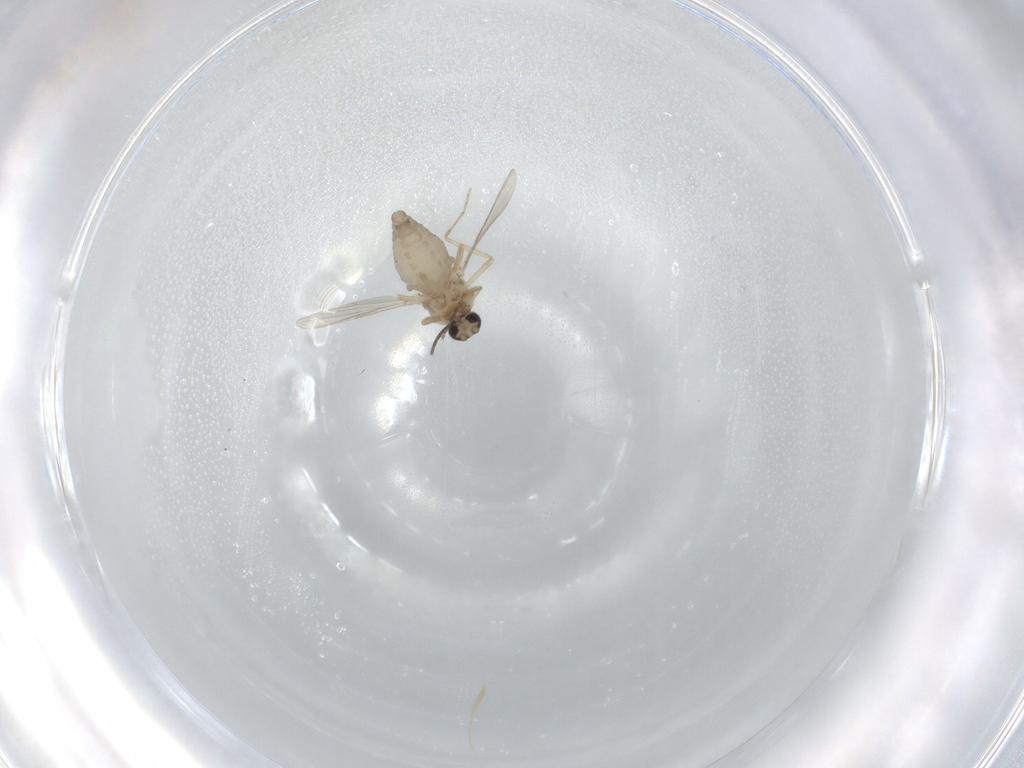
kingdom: Animalia
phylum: Arthropoda
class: Insecta
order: Diptera
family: Ceratopogonidae
